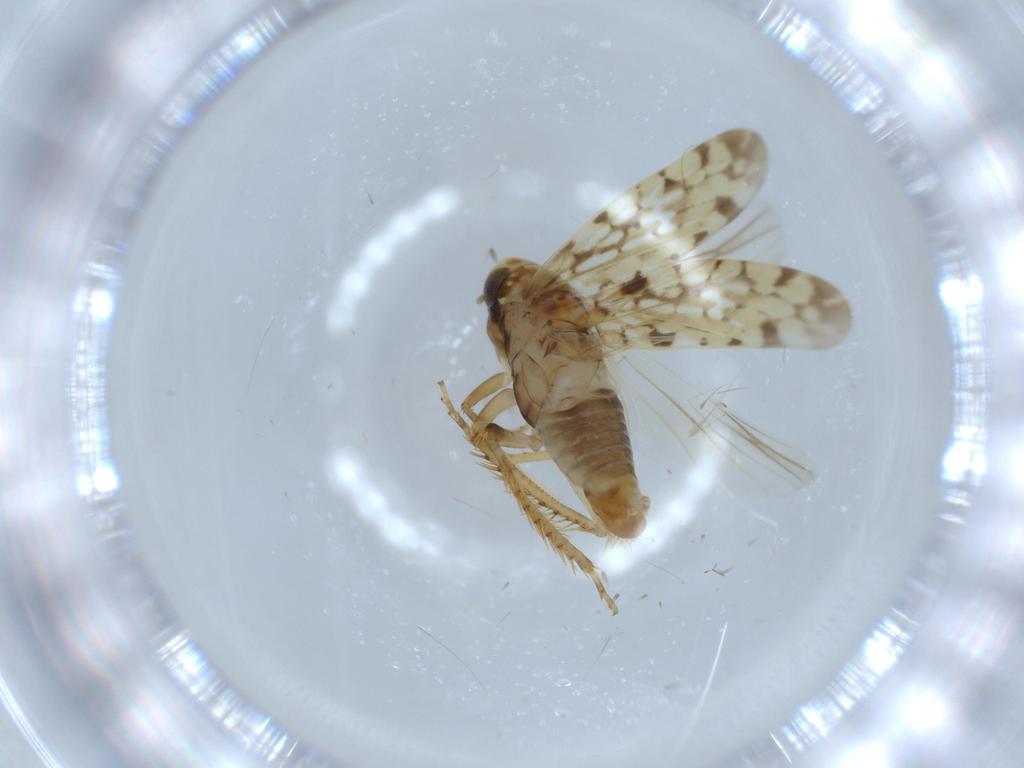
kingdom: Animalia
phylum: Arthropoda
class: Insecta
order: Hemiptera
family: Cicadellidae
